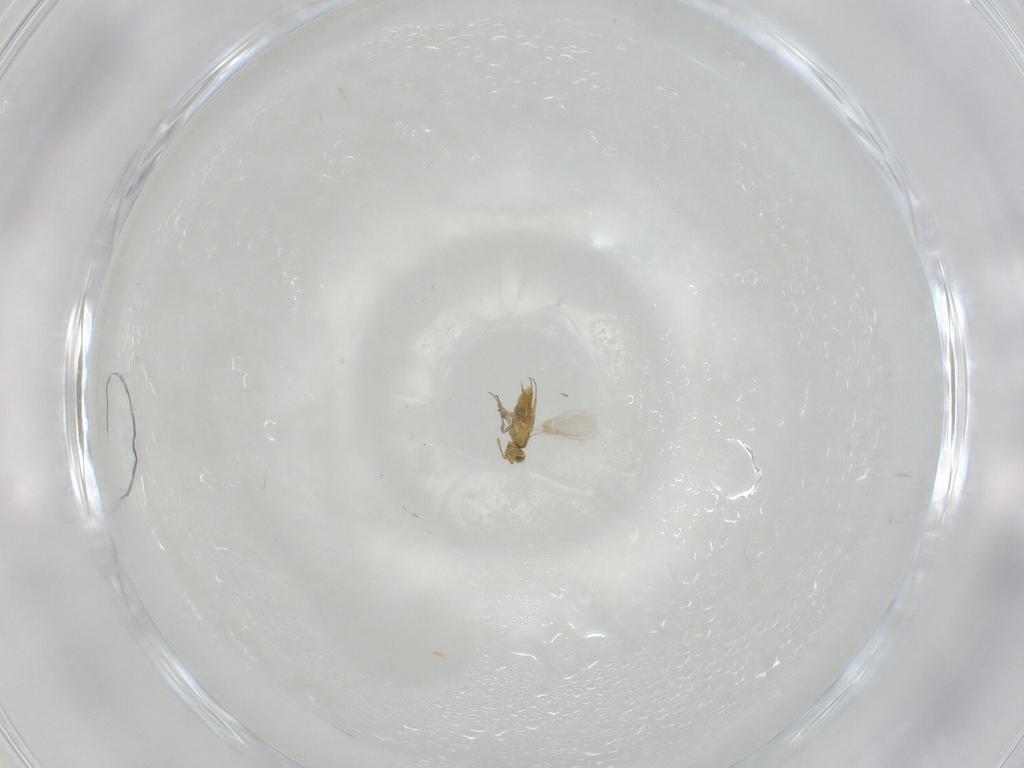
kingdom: Animalia
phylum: Arthropoda
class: Insecta
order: Hymenoptera
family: Aphelinidae
